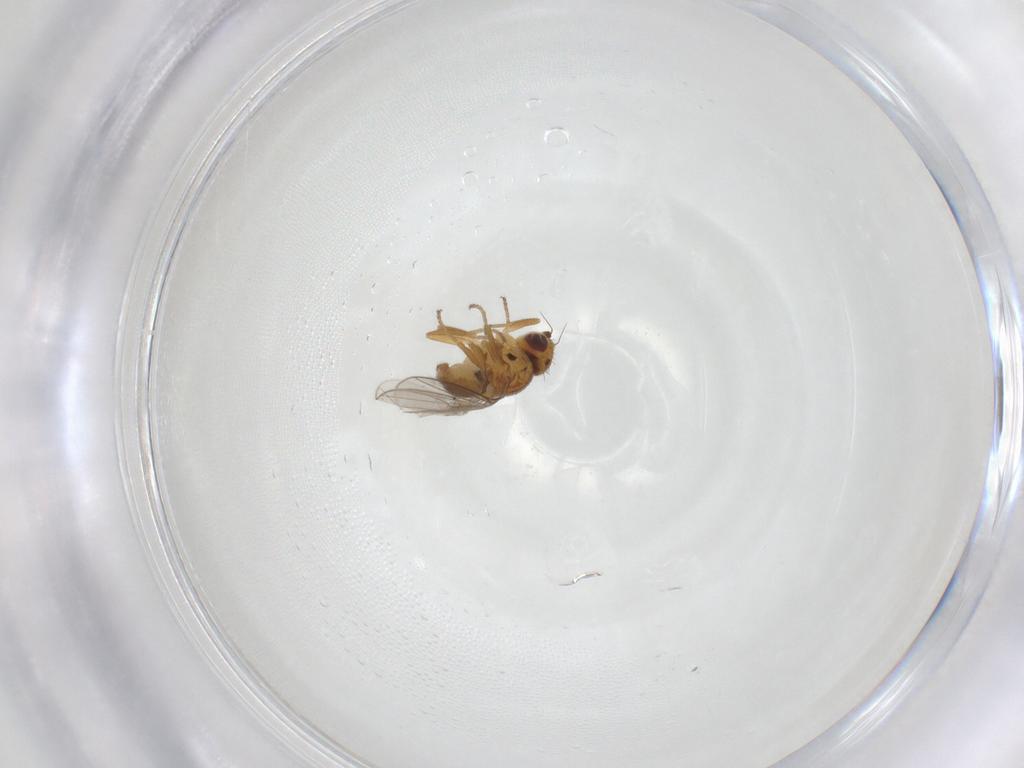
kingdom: Animalia
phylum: Arthropoda
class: Insecta
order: Diptera
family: Chloropidae
